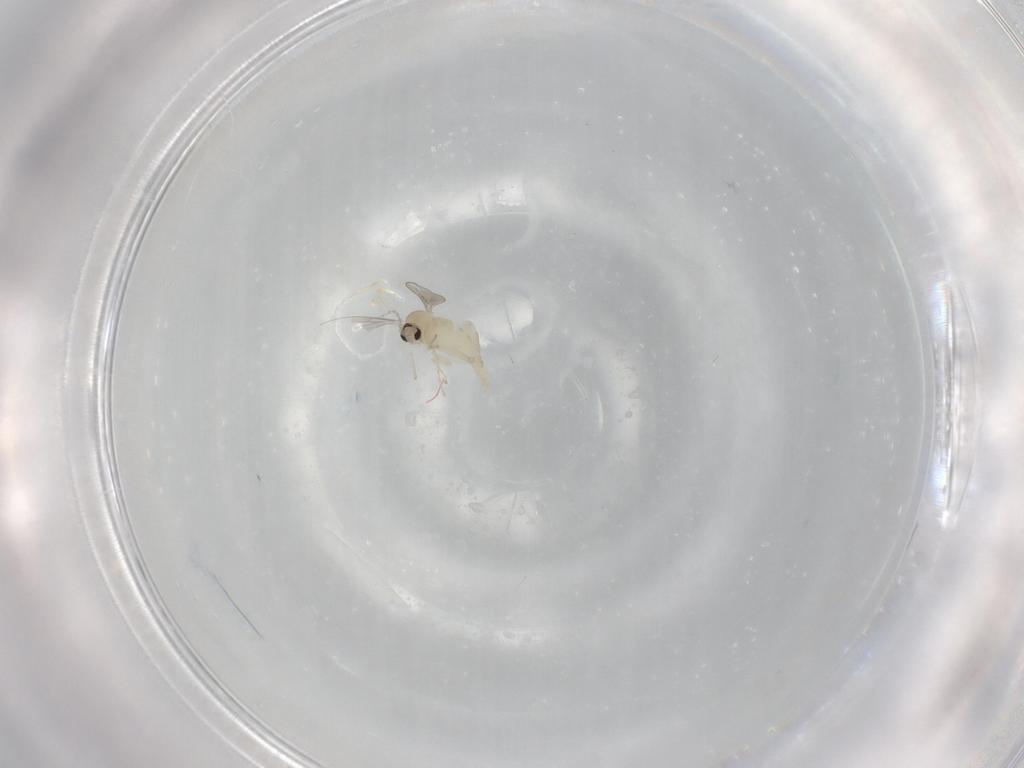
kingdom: Animalia
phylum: Arthropoda
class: Insecta
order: Diptera
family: Cecidomyiidae
